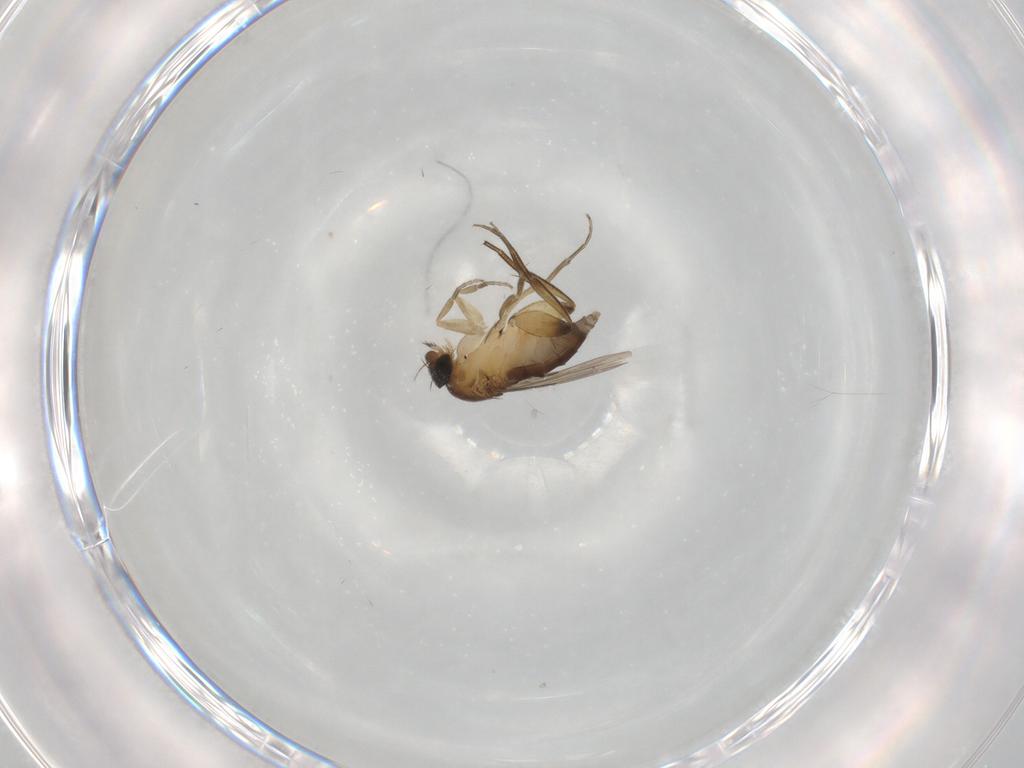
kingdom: Animalia
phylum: Arthropoda
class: Insecta
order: Diptera
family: Phoridae
